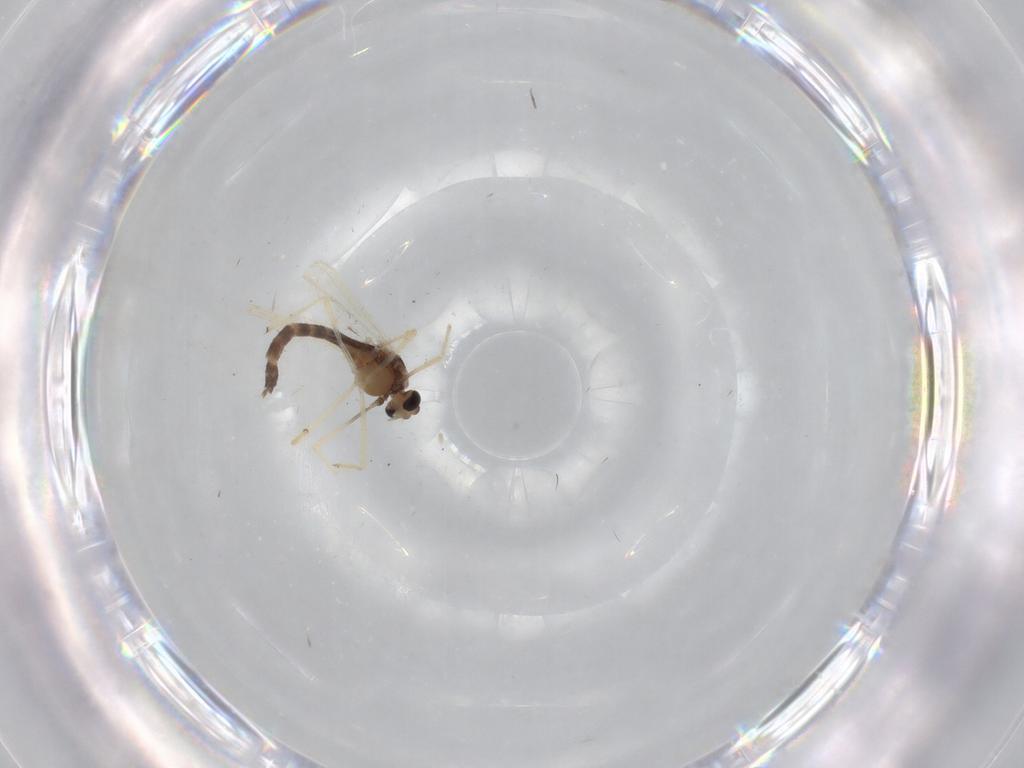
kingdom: Animalia
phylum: Arthropoda
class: Insecta
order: Diptera
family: Chironomidae
